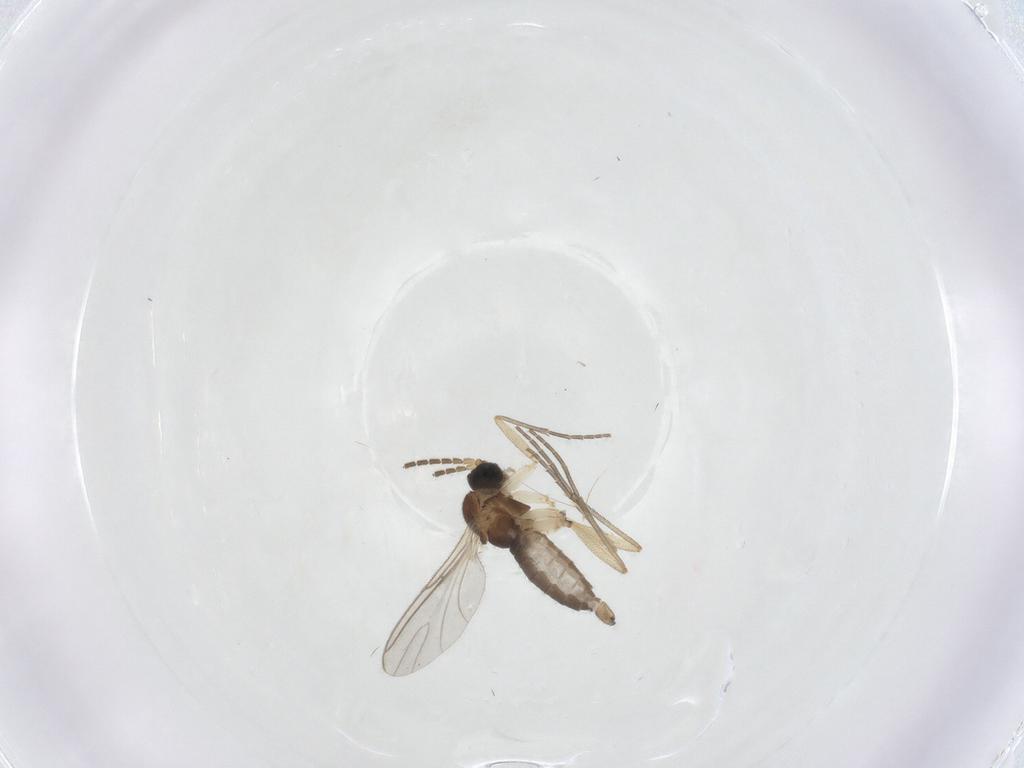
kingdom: Animalia
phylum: Arthropoda
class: Insecta
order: Diptera
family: Sciaridae
